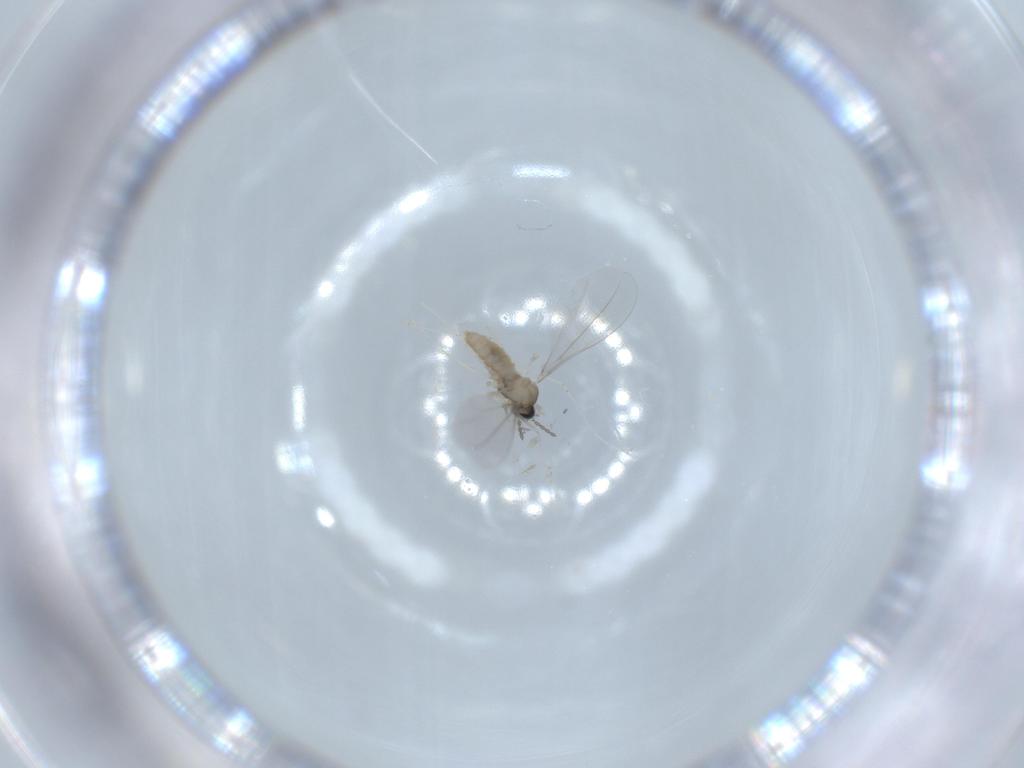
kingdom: Animalia
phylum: Arthropoda
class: Insecta
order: Diptera
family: Cecidomyiidae
